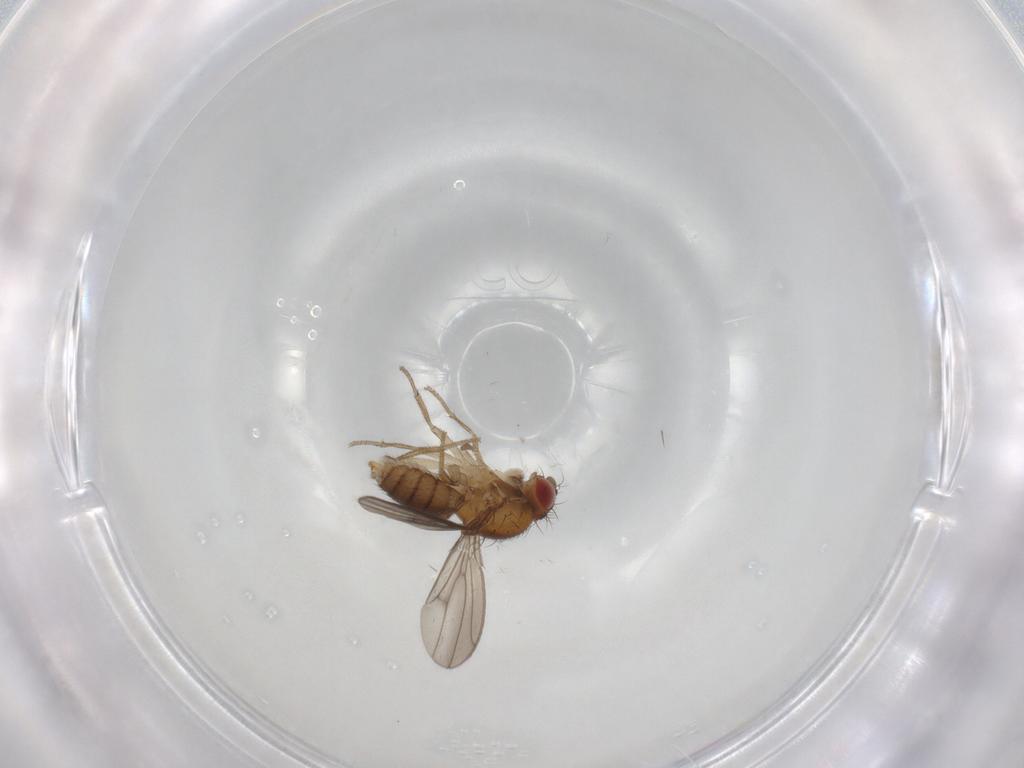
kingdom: Animalia
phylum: Arthropoda
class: Insecta
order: Diptera
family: Drosophilidae
